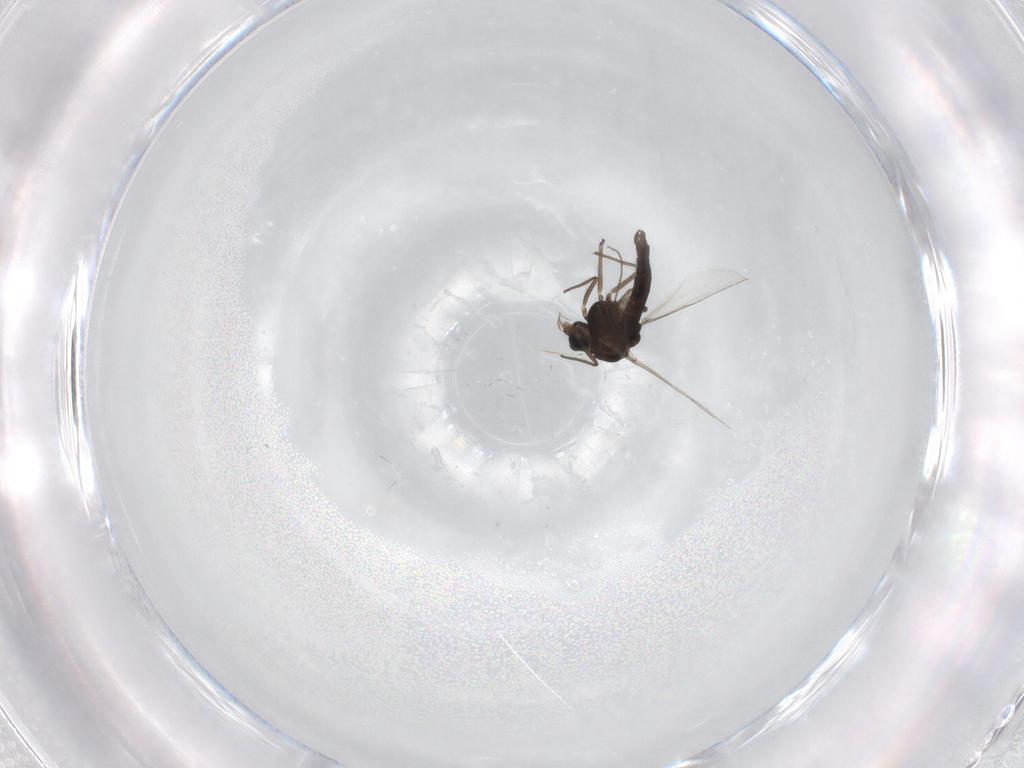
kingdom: Animalia
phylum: Arthropoda
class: Insecta
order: Diptera
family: Chironomidae
